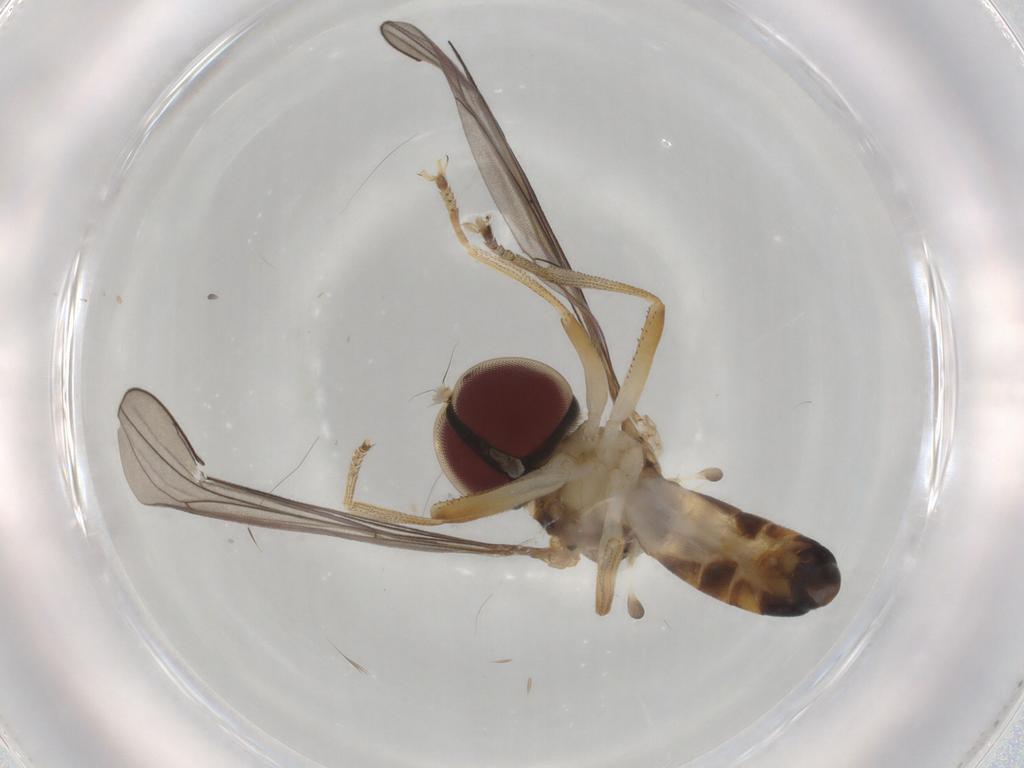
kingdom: Animalia
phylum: Arthropoda
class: Insecta
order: Diptera
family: Hybotidae
